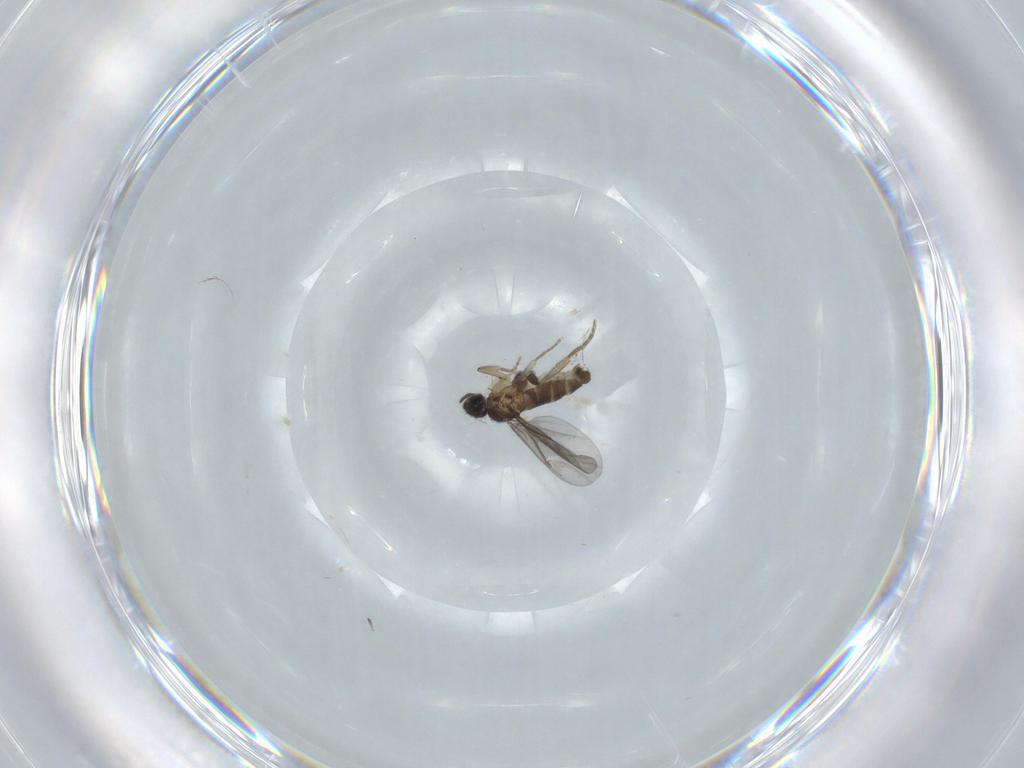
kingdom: Animalia
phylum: Arthropoda
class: Insecta
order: Diptera
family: Chironomidae
